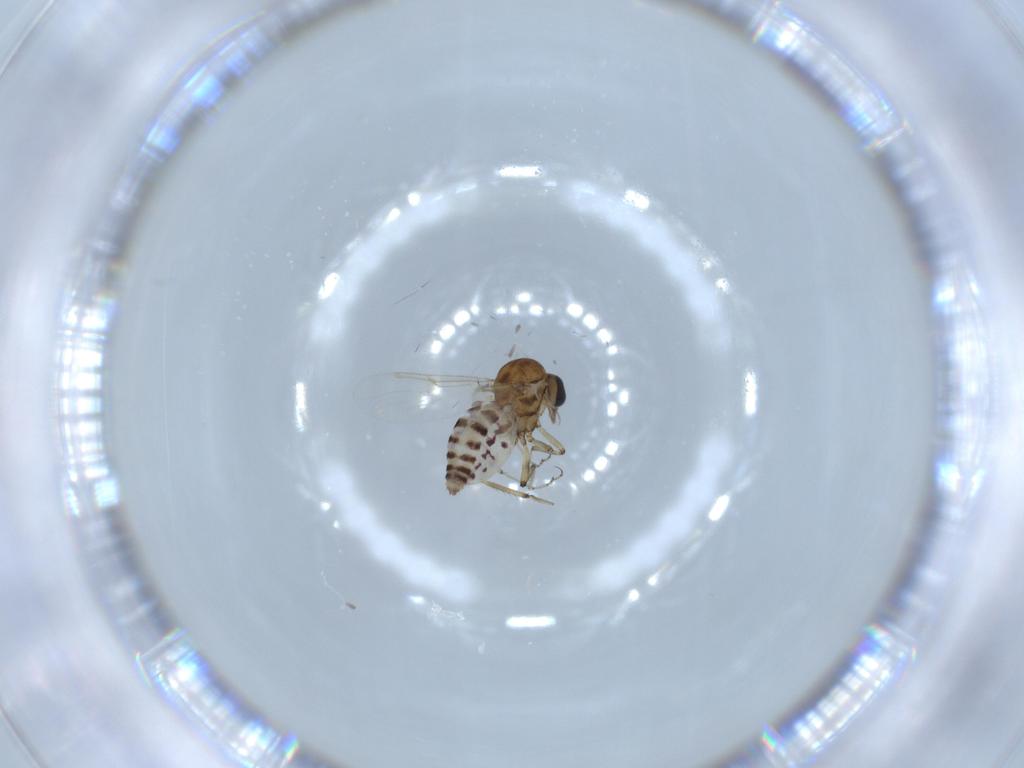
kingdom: Animalia
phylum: Arthropoda
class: Insecta
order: Diptera
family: Ceratopogonidae
